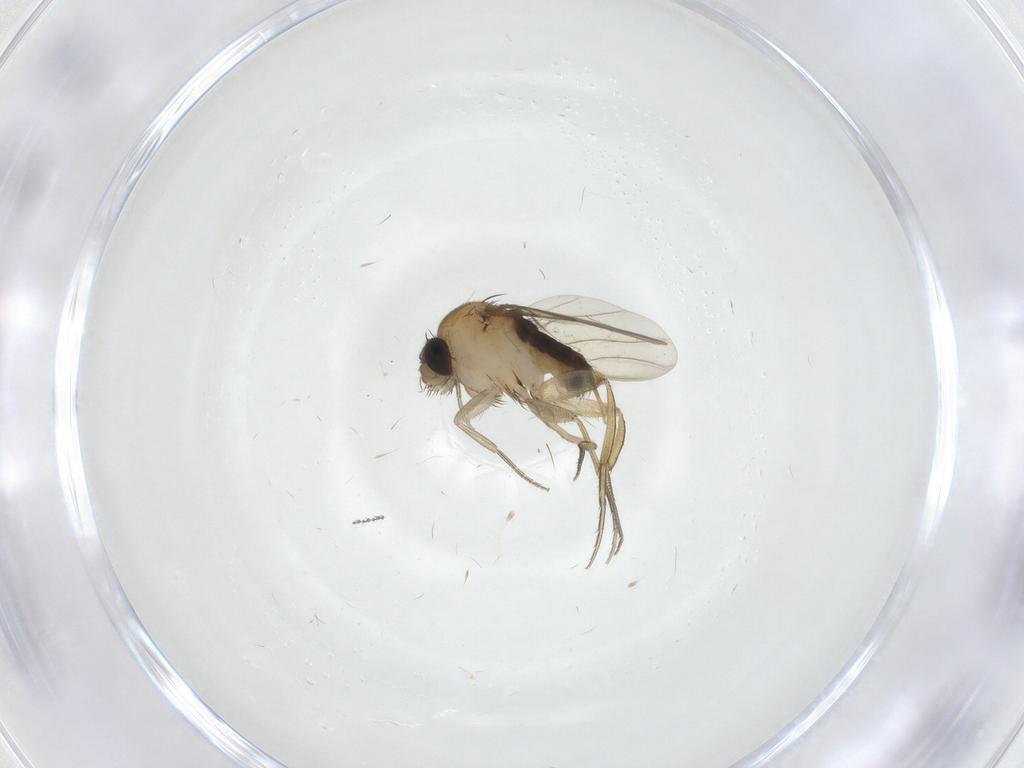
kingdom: Animalia
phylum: Arthropoda
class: Insecta
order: Diptera
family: Phoridae
